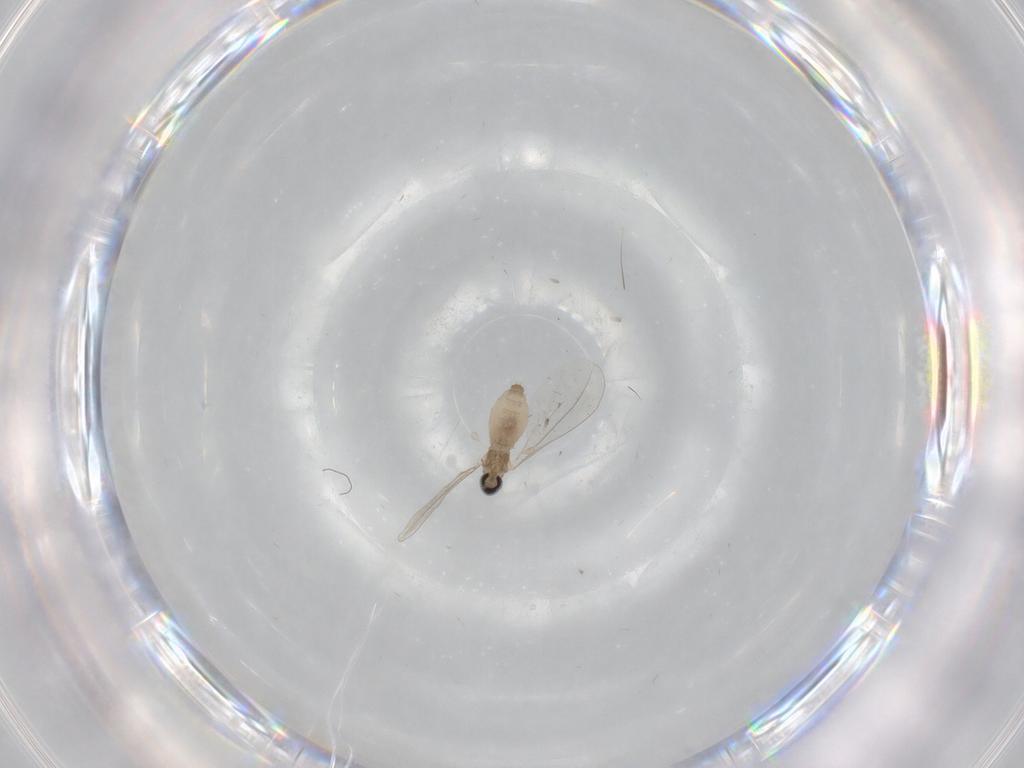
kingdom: Animalia
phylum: Arthropoda
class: Insecta
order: Diptera
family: Cecidomyiidae
